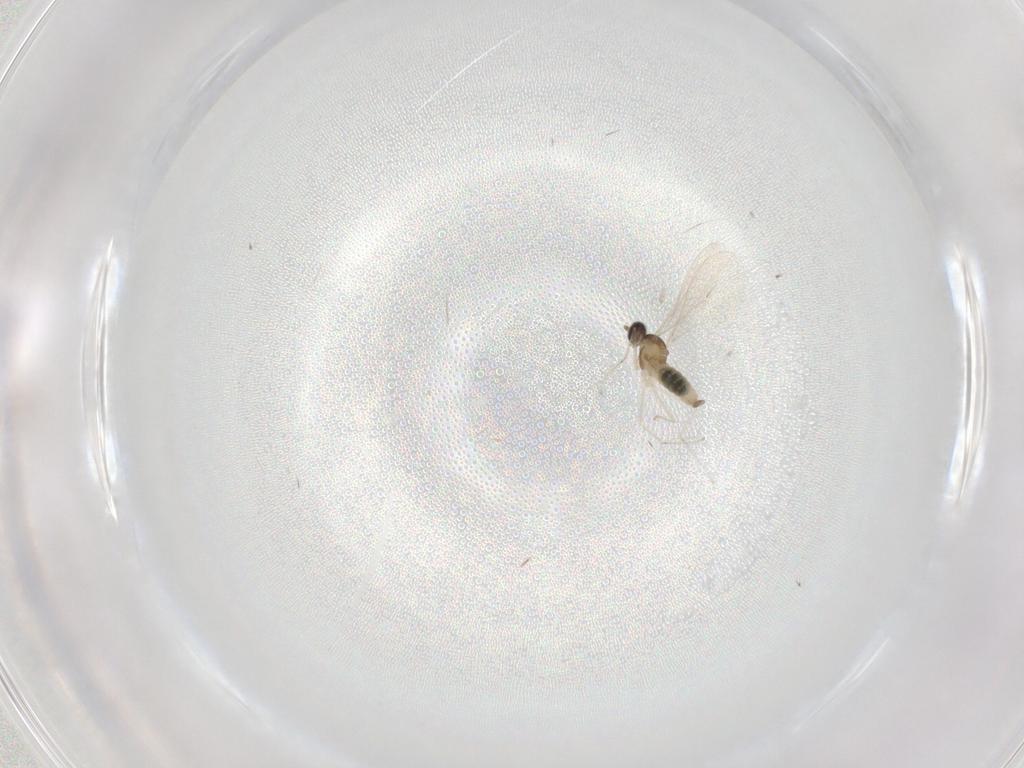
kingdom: Animalia
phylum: Arthropoda
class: Insecta
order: Diptera
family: Cecidomyiidae
